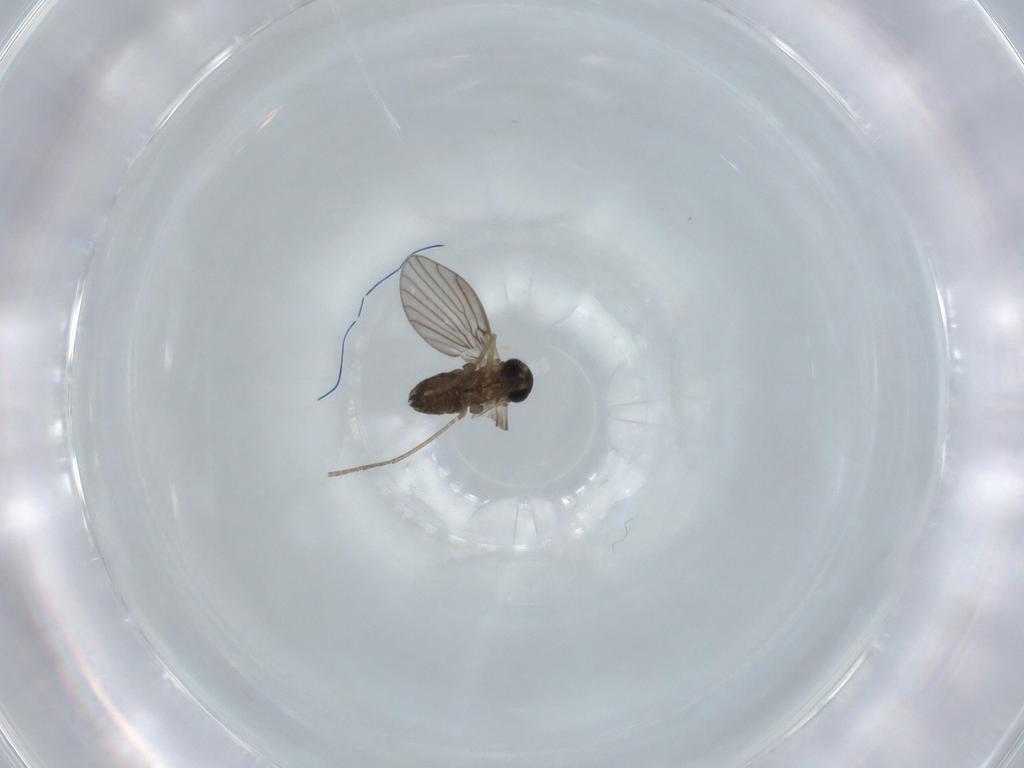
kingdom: Animalia
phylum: Arthropoda
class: Insecta
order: Diptera
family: Psychodidae
